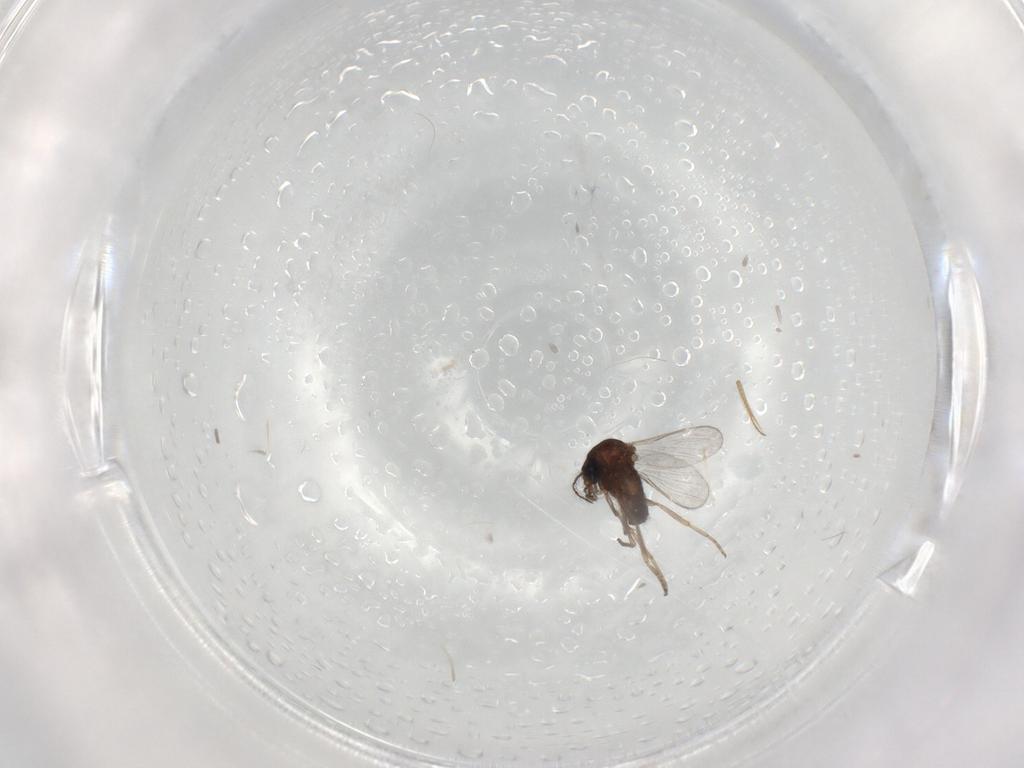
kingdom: Animalia
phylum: Arthropoda
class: Insecta
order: Diptera
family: Ceratopogonidae
